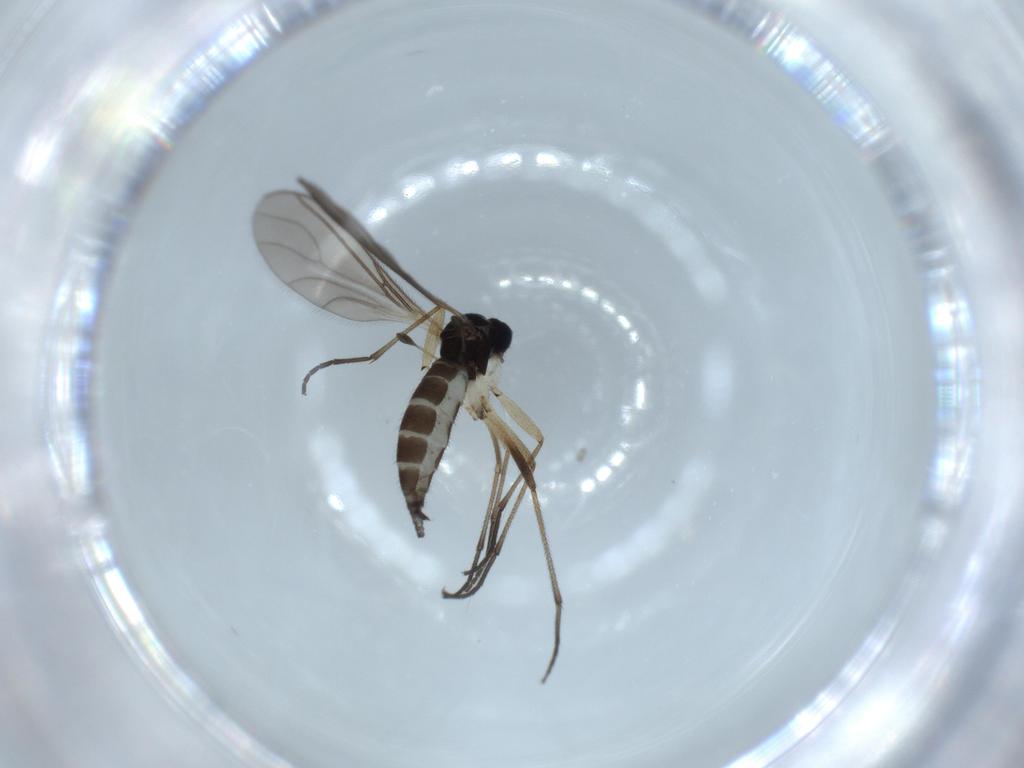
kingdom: Animalia
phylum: Arthropoda
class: Insecta
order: Diptera
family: Sciaridae
